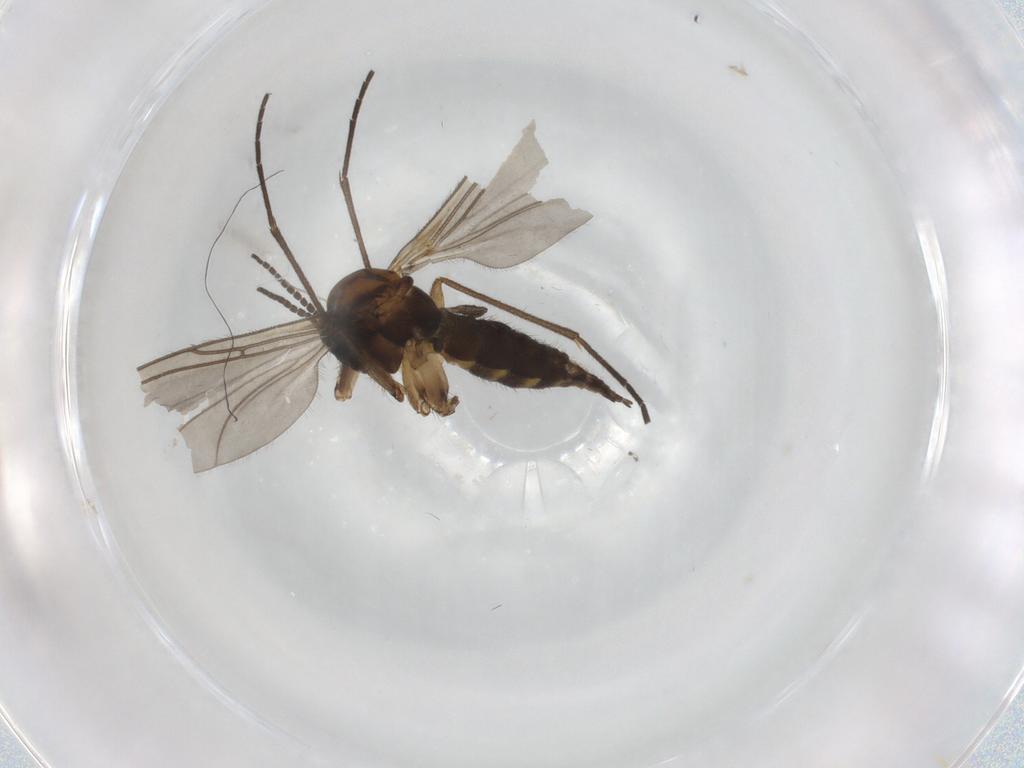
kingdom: Animalia
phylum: Arthropoda
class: Insecta
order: Diptera
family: Sciaridae
